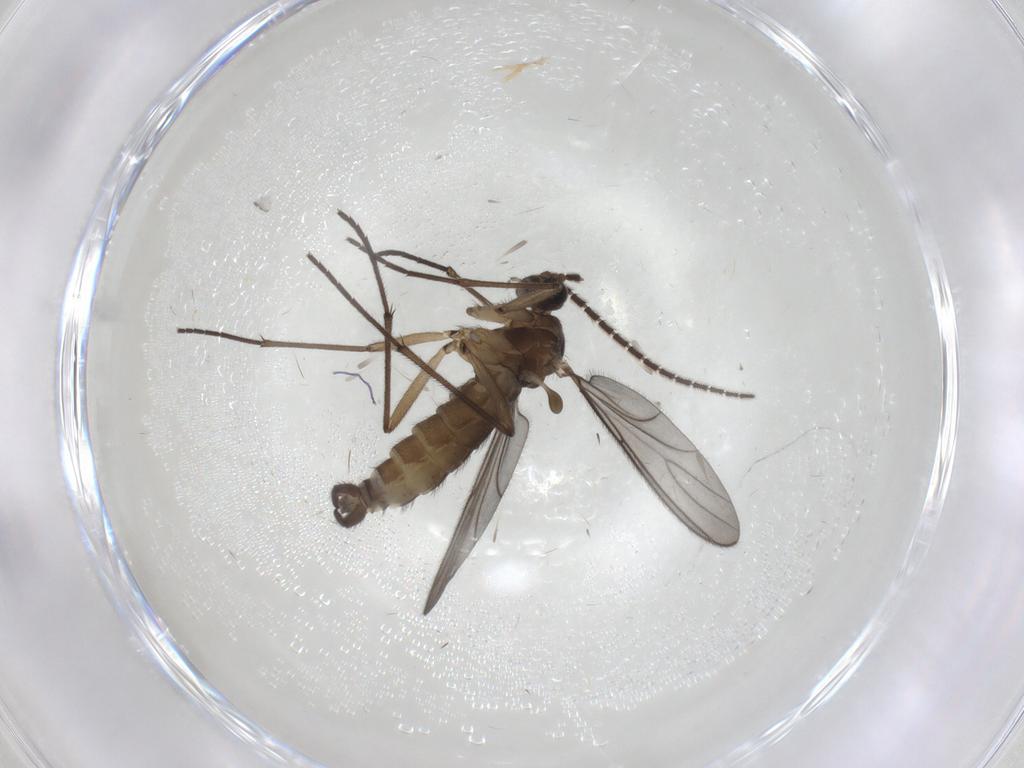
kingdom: Animalia
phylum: Arthropoda
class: Insecta
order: Diptera
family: Sciaridae
